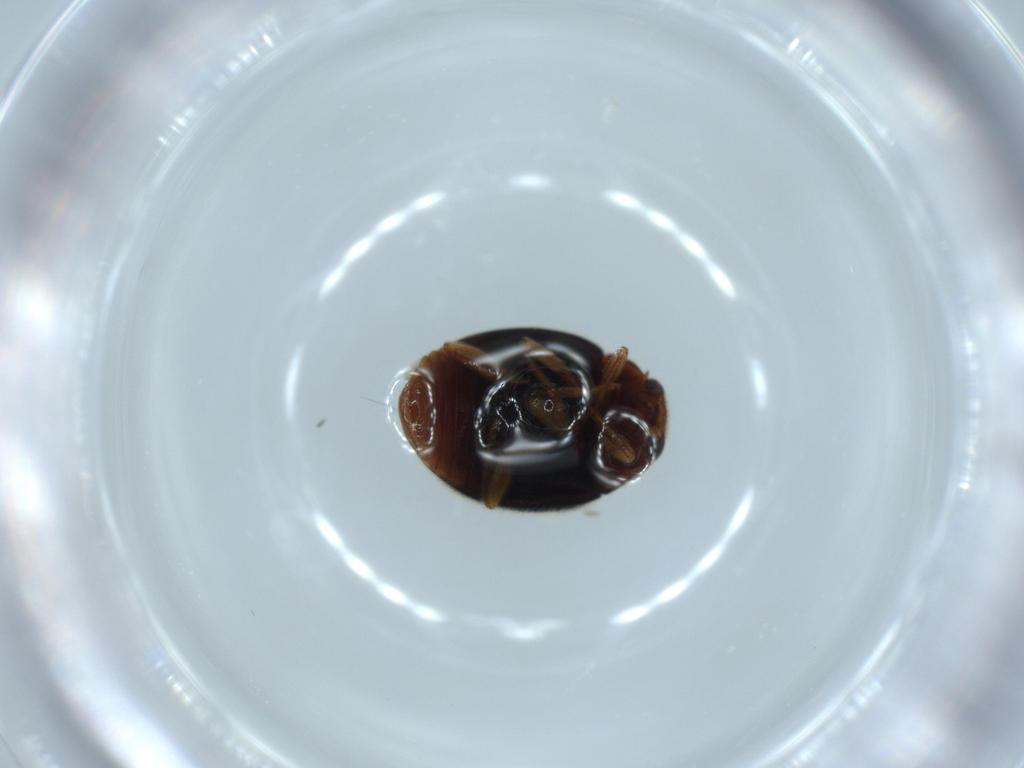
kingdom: Animalia
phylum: Arthropoda
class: Insecta
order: Coleoptera
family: Coccinellidae
